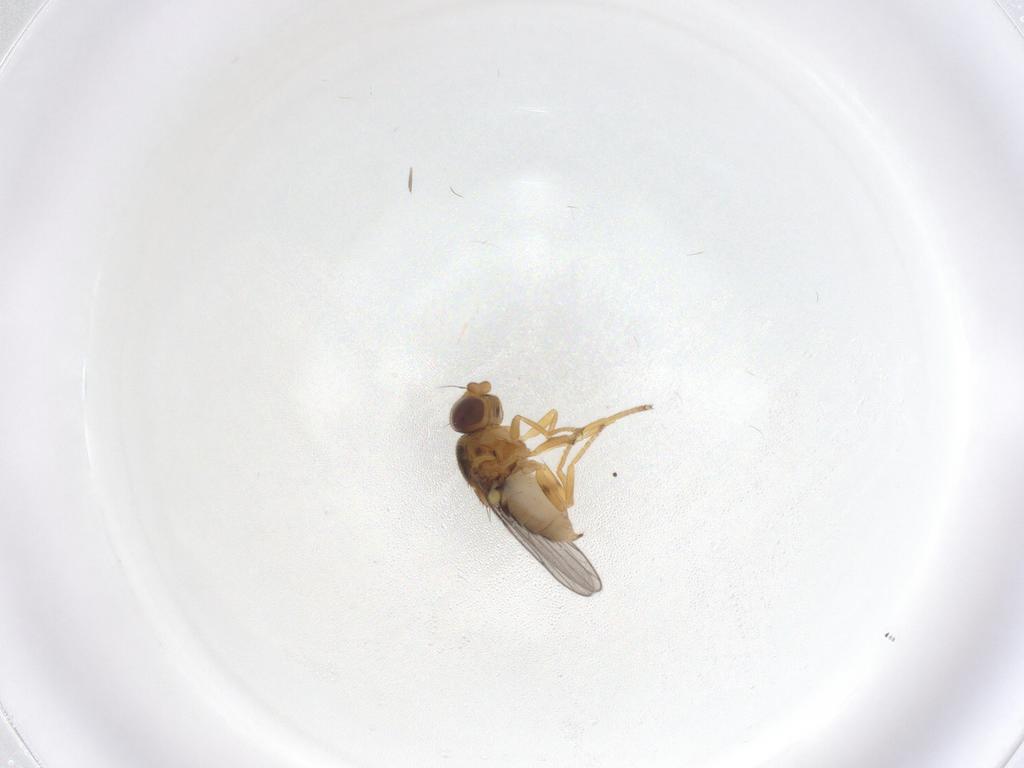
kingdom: Animalia
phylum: Arthropoda
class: Insecta
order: Diptera
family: Chloropidae
